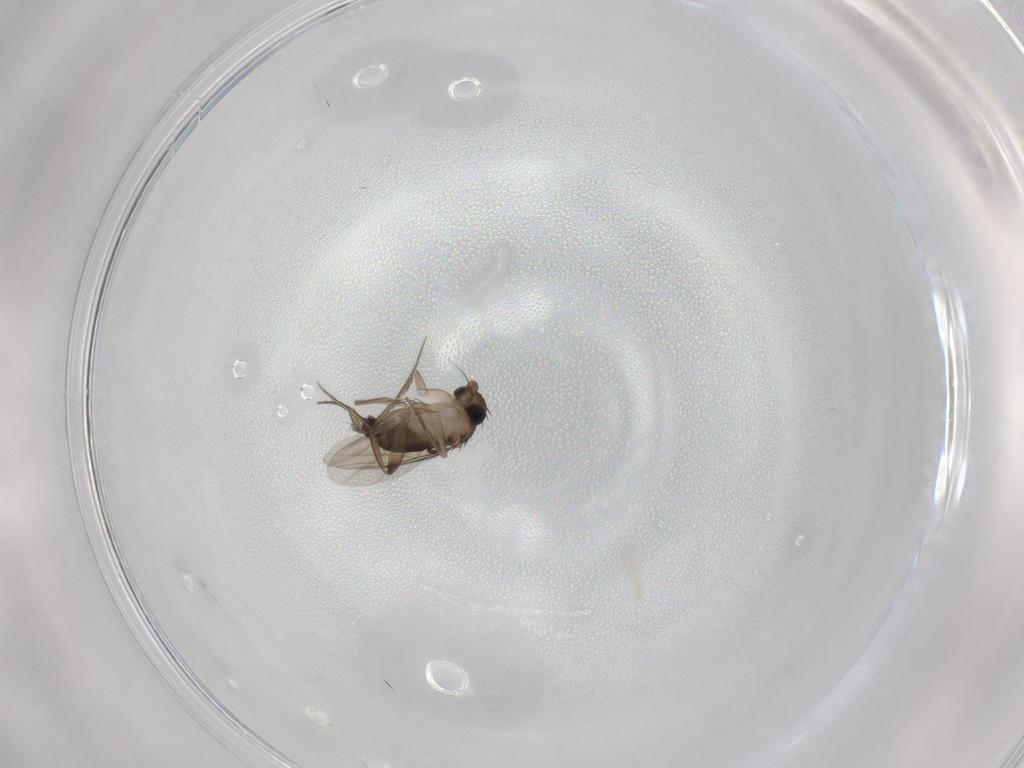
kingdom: Animalia
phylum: Arthropoda
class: Insecta
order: Diptera
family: Phoridae
